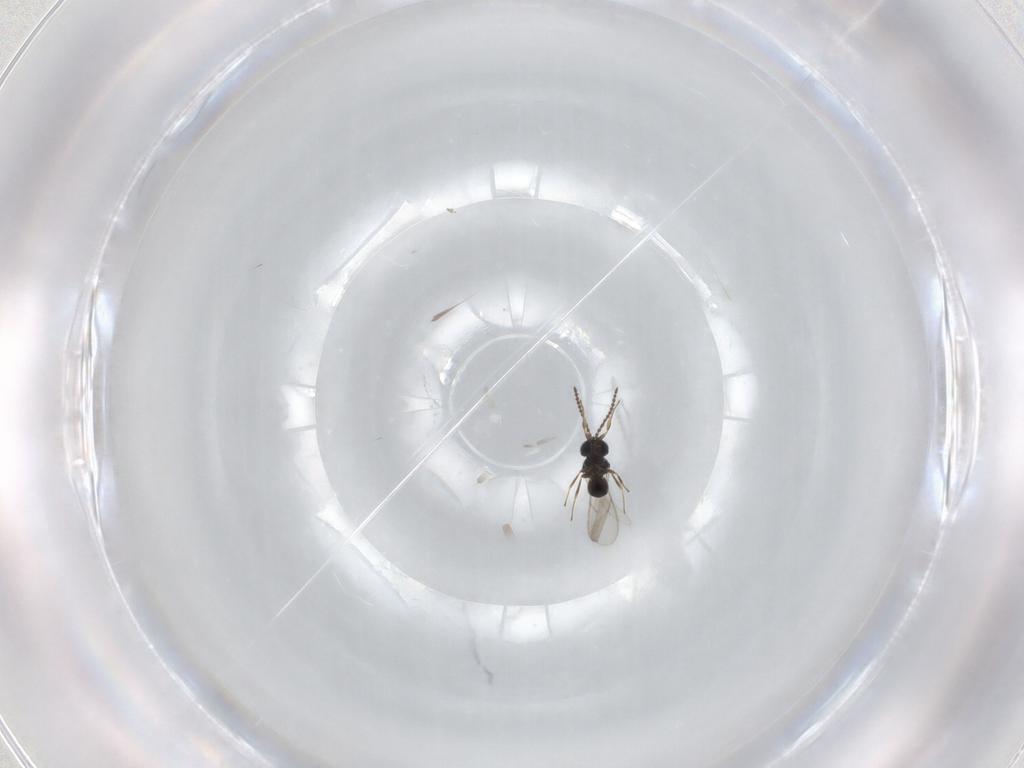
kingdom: Animalia
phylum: Arthropoda
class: Insecta
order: Hymenoptera
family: Scelionidae
